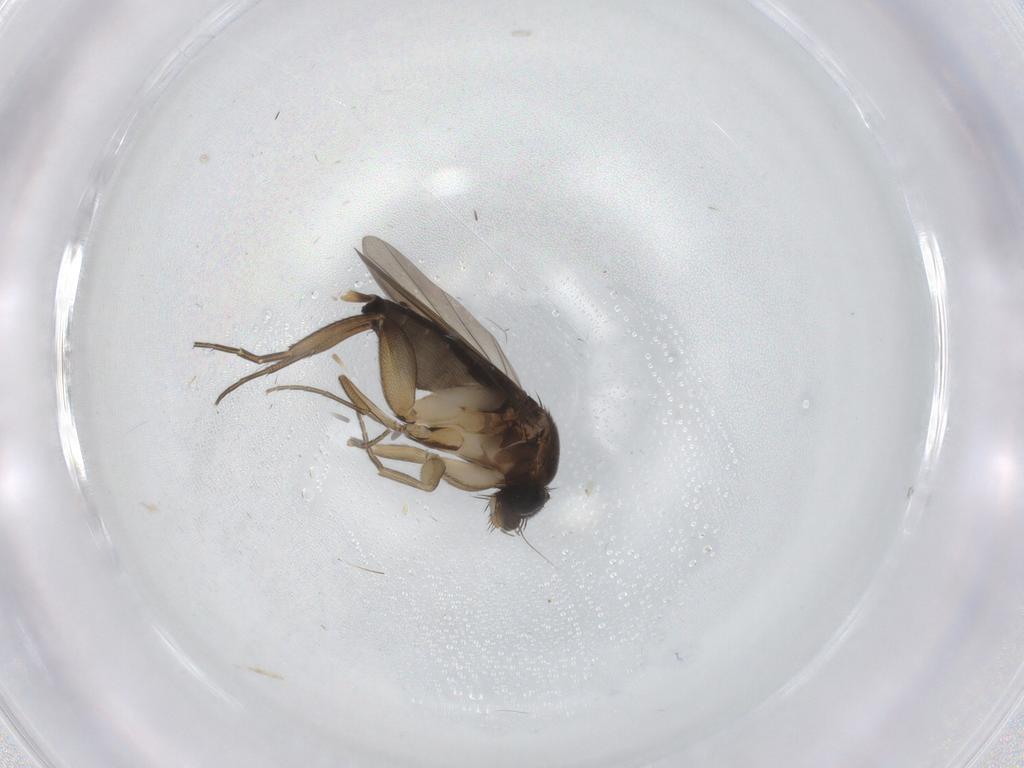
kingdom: Animalia
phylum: Arthropoda
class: Insecta
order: Diptera
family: Phoridae
